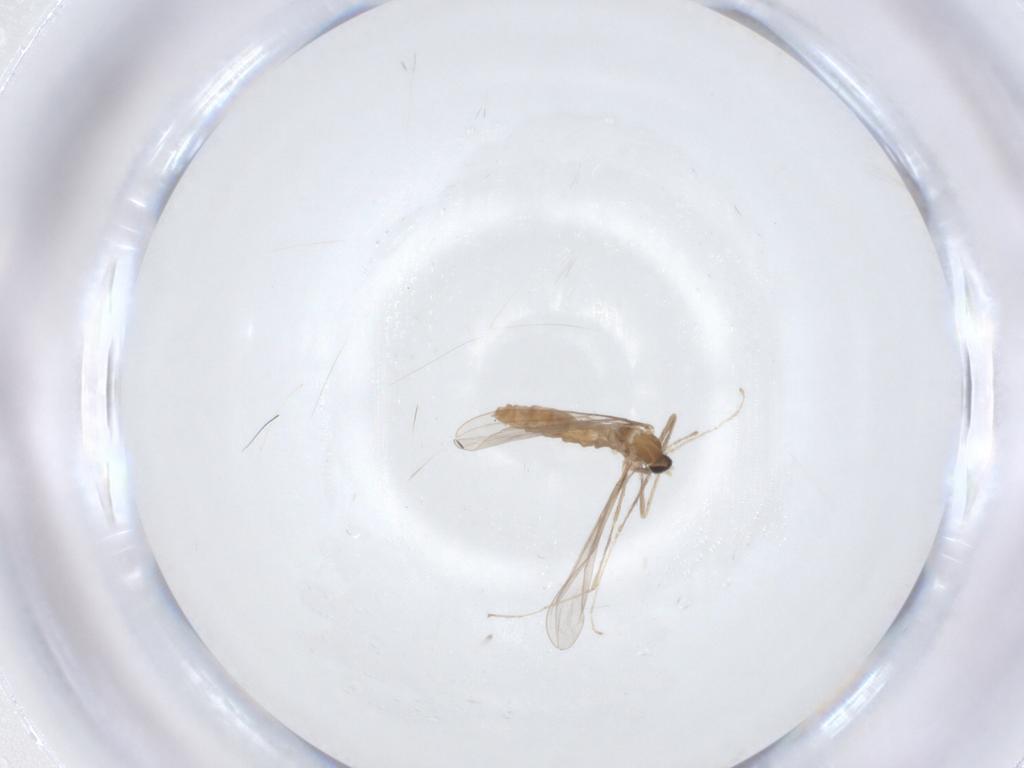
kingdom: Animalia
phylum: Arthropoda
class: Insecta
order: Diptera
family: Cecidomyiidae
